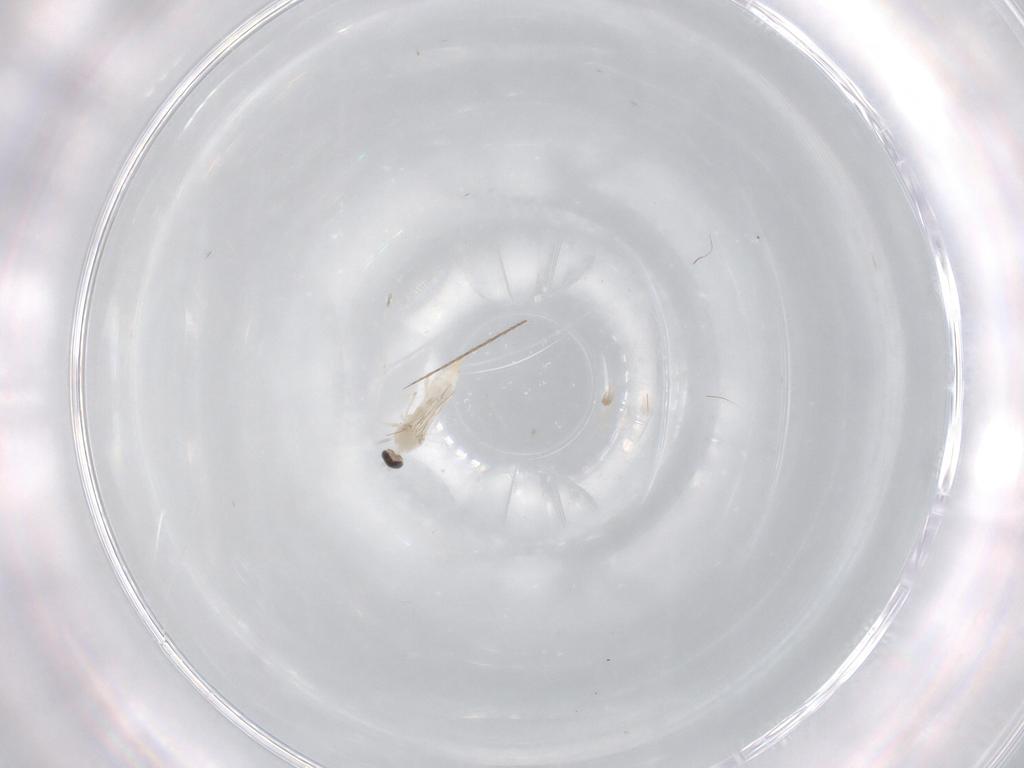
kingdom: Animalia
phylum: Arthropoda
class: Insecta
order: Diptera
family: Cecidomyiidae
